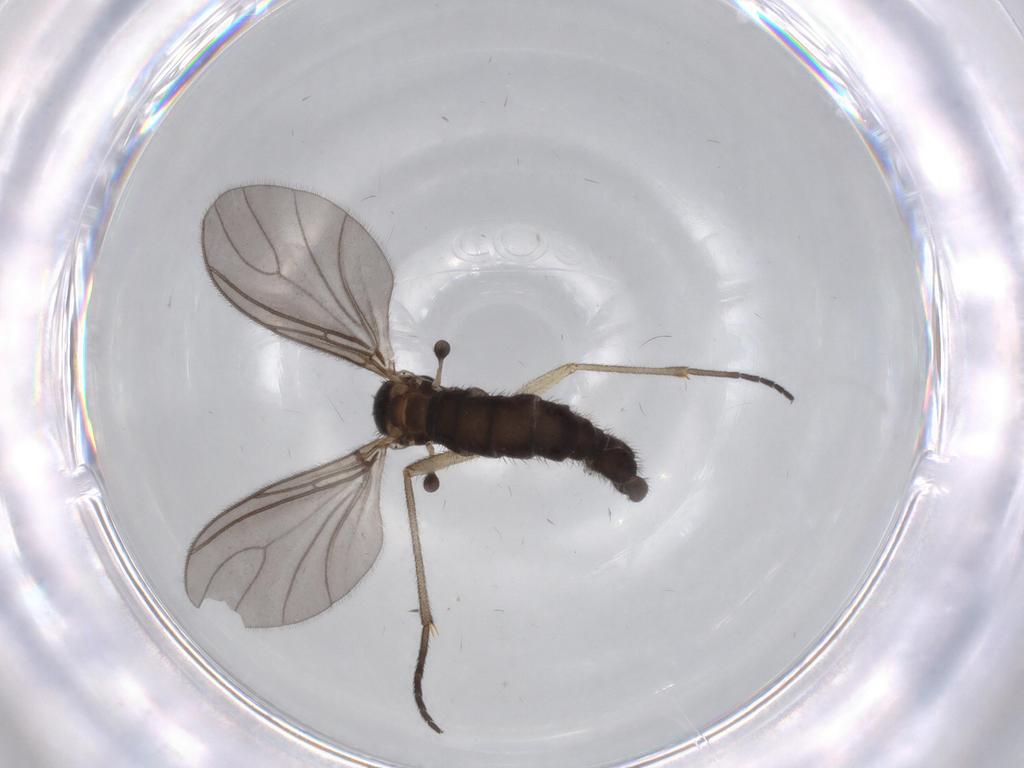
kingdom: Animalia
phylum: Arthropoda
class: Insecta
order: Diptera
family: Sciaridae
